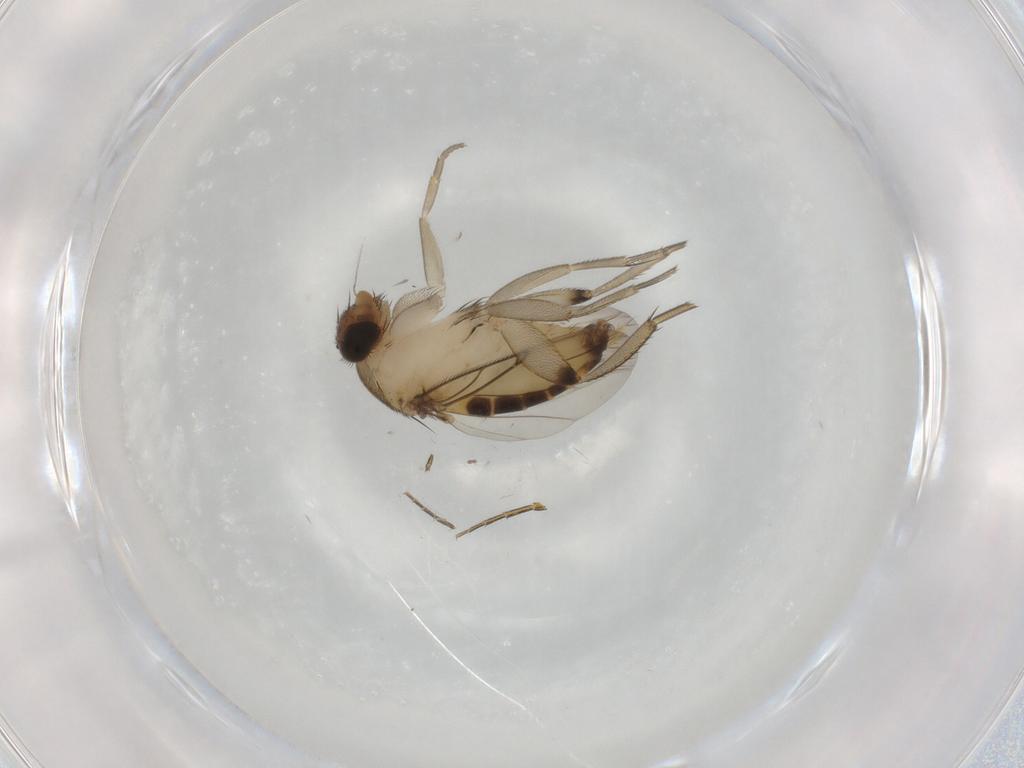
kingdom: Animalia
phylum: Arthropoda
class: Insecta
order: Diptera
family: Phoridae
